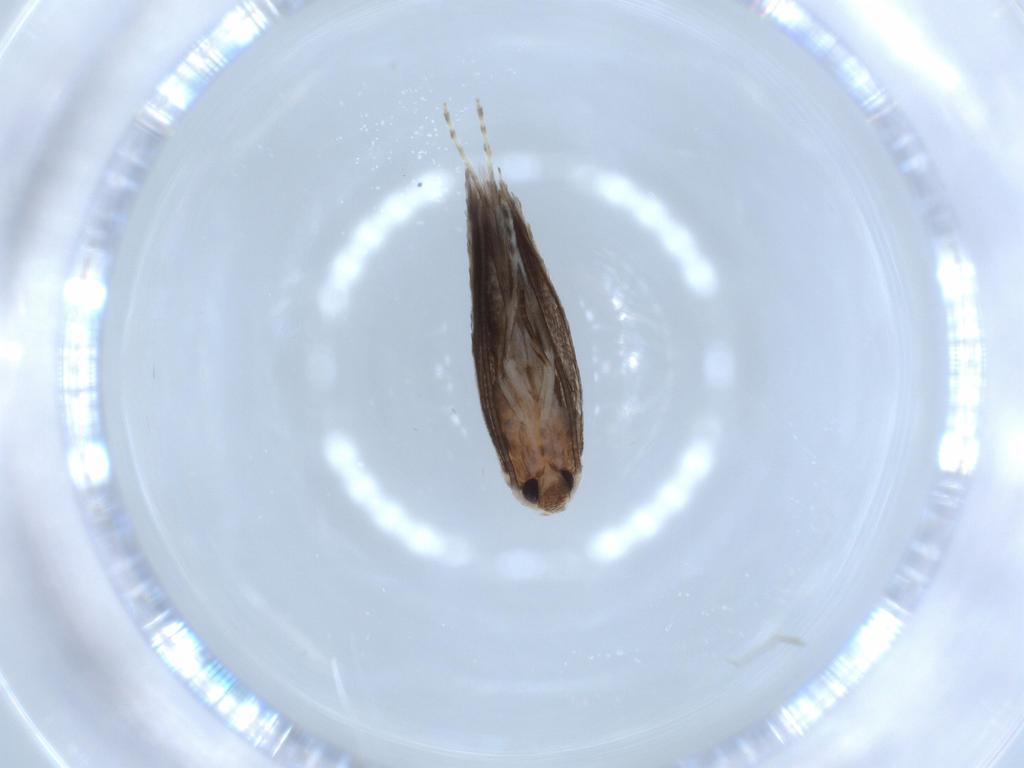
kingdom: Animalia
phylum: Arthropoda
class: Insecta
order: Lepidoptera
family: Lyonetiidae
